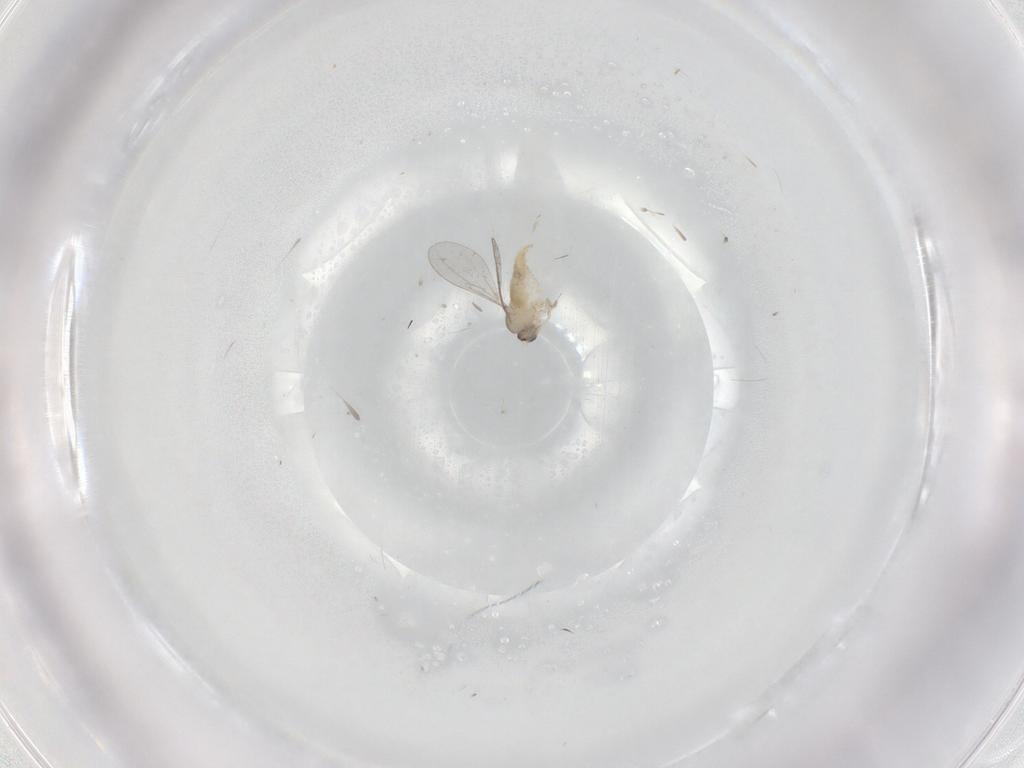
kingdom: Animalia
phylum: Arthropoda
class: Insecta
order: Diptera
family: Cecidomyiidae
